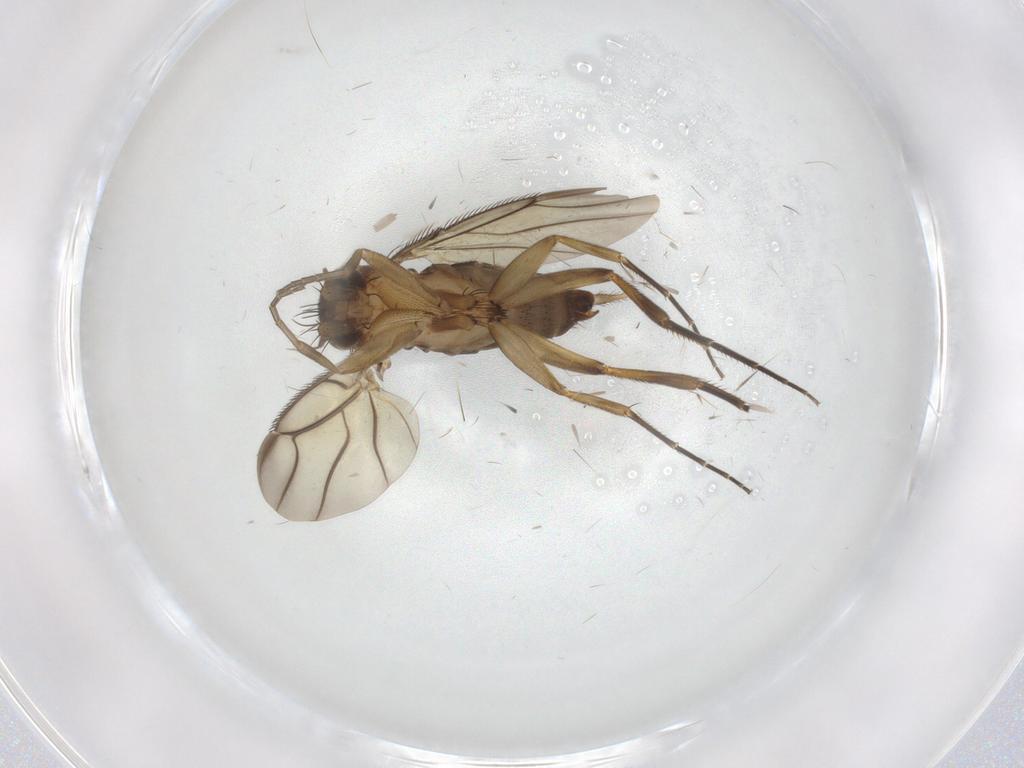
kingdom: Animalia
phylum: Arthropoda
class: Insecta
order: Diptera
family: Phoridae
